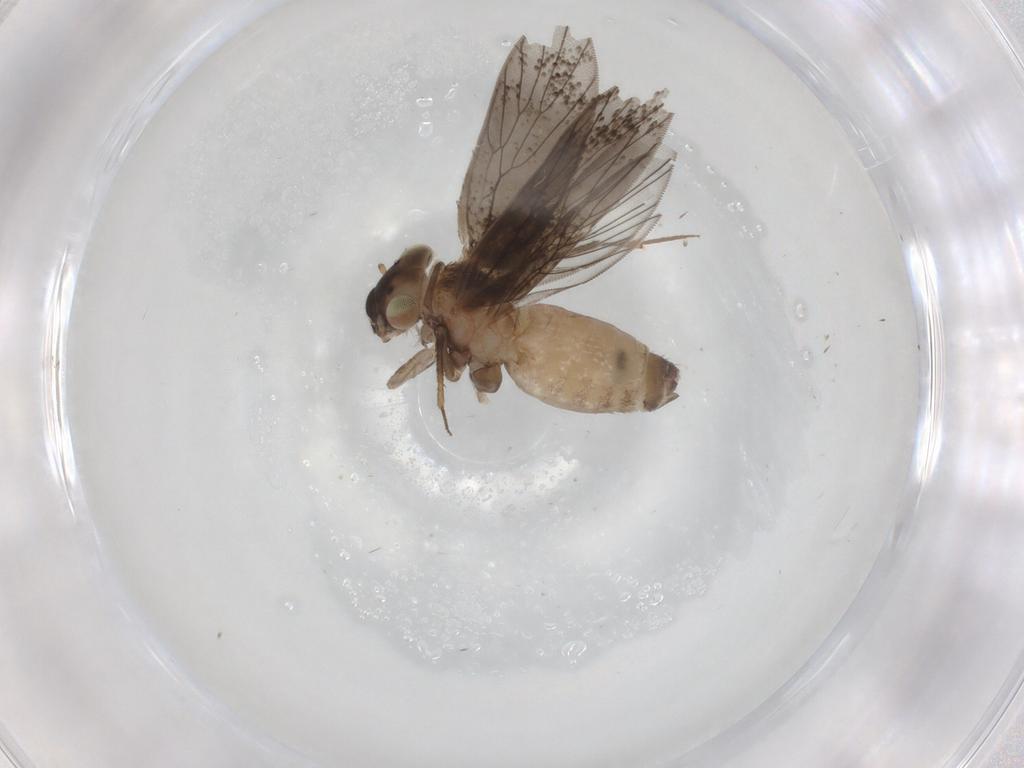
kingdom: Animalia
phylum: Arthropoda
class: Insecta
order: Psocodea
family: Lepidopsocidae
